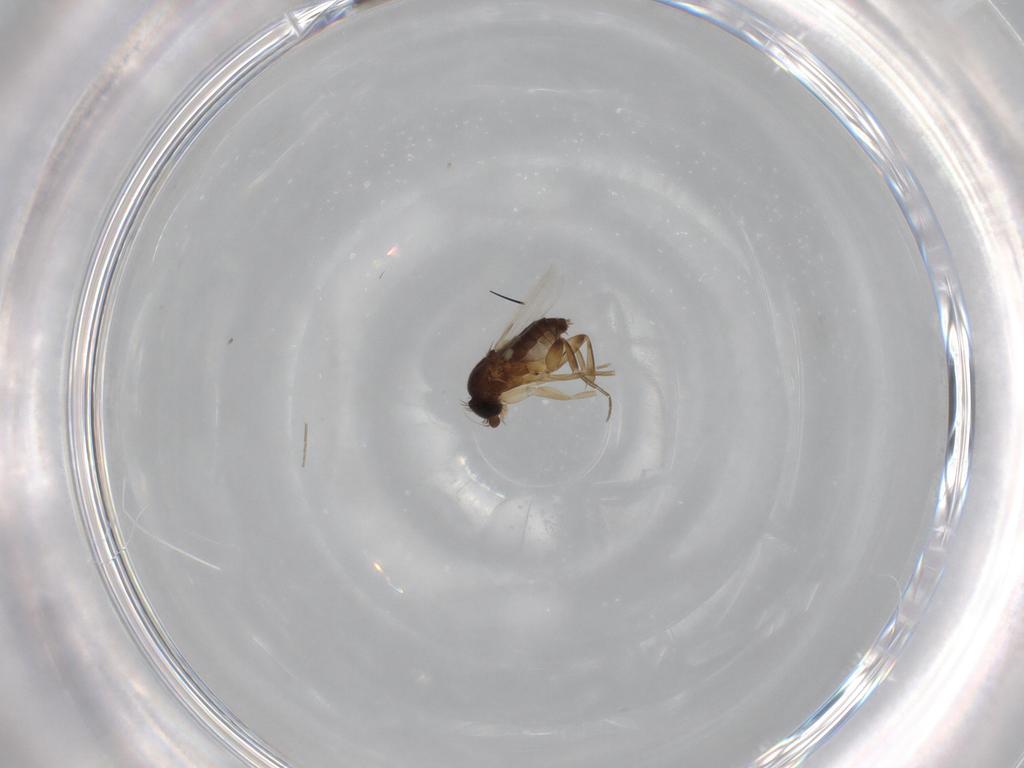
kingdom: Animalia
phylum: Arthropoda
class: Insecta
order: Diptera
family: Phoridae
